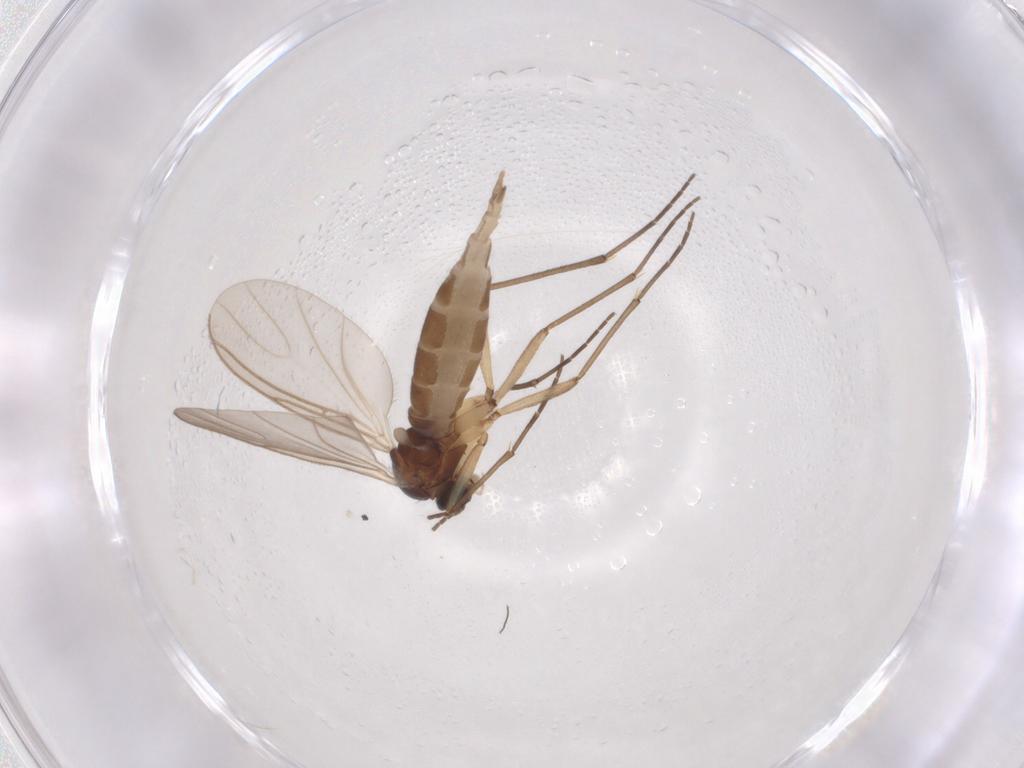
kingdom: Animalia
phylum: Arthropoda
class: Insecta
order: Diptera
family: Sciaridae
